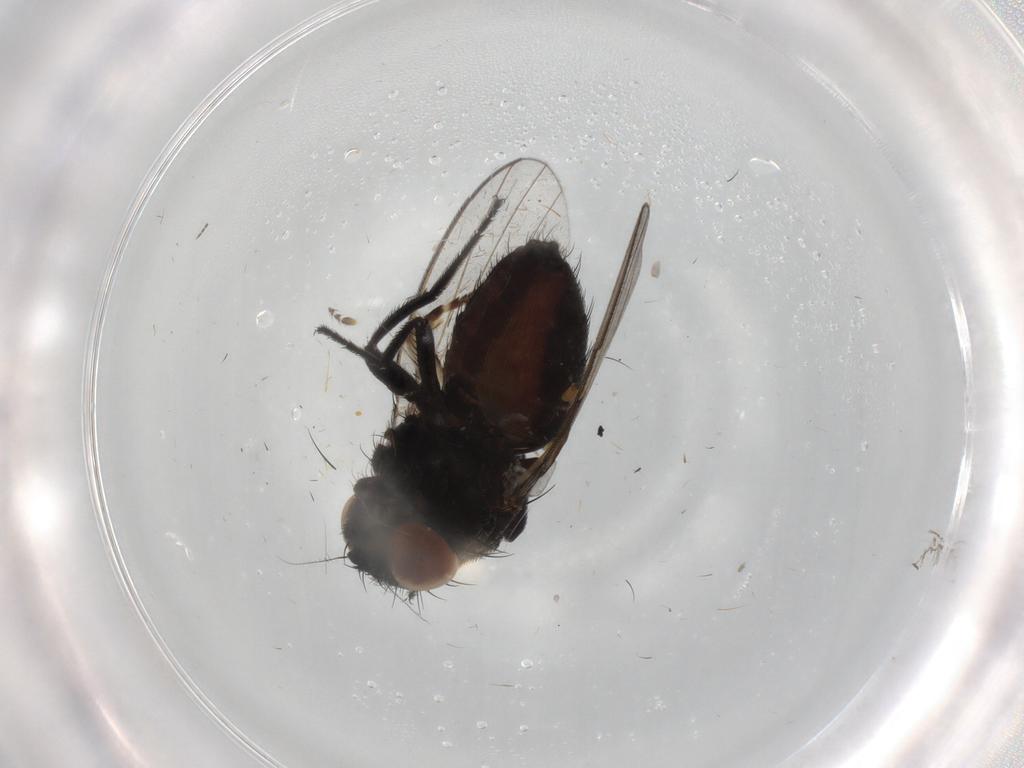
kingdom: Animalia
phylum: Arthropoda
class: Insecta
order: Diptera
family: Milichiidae
